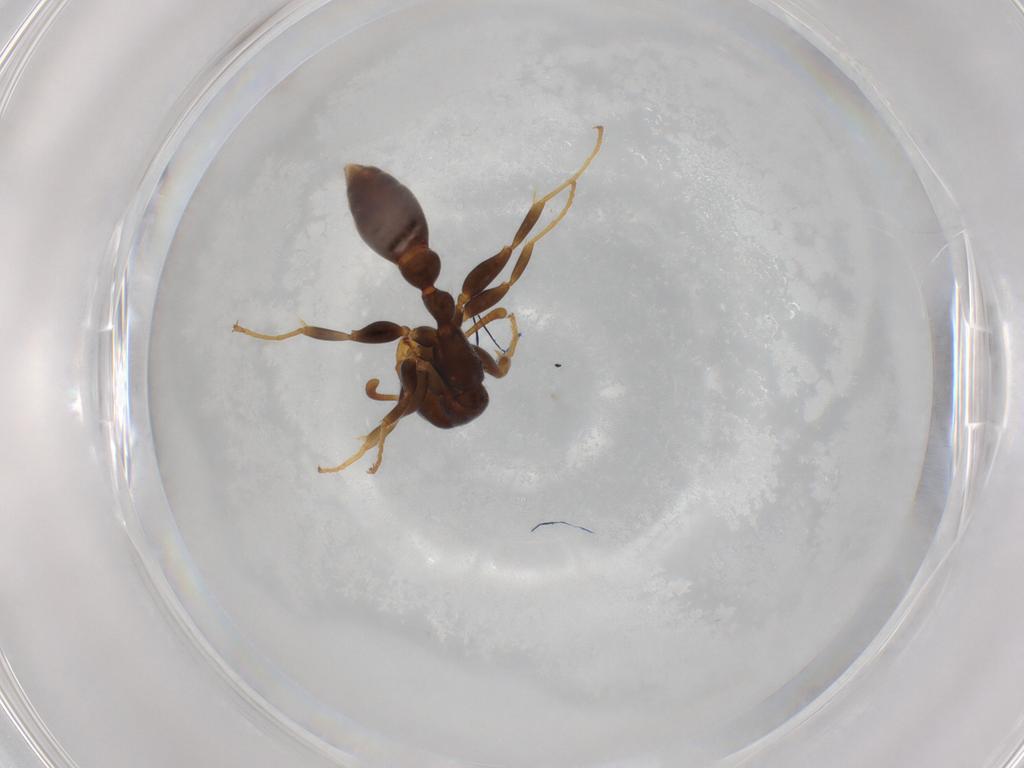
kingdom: Animalia
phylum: Arthropoda
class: Insecta
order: Hymenoptera
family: Formicidae
